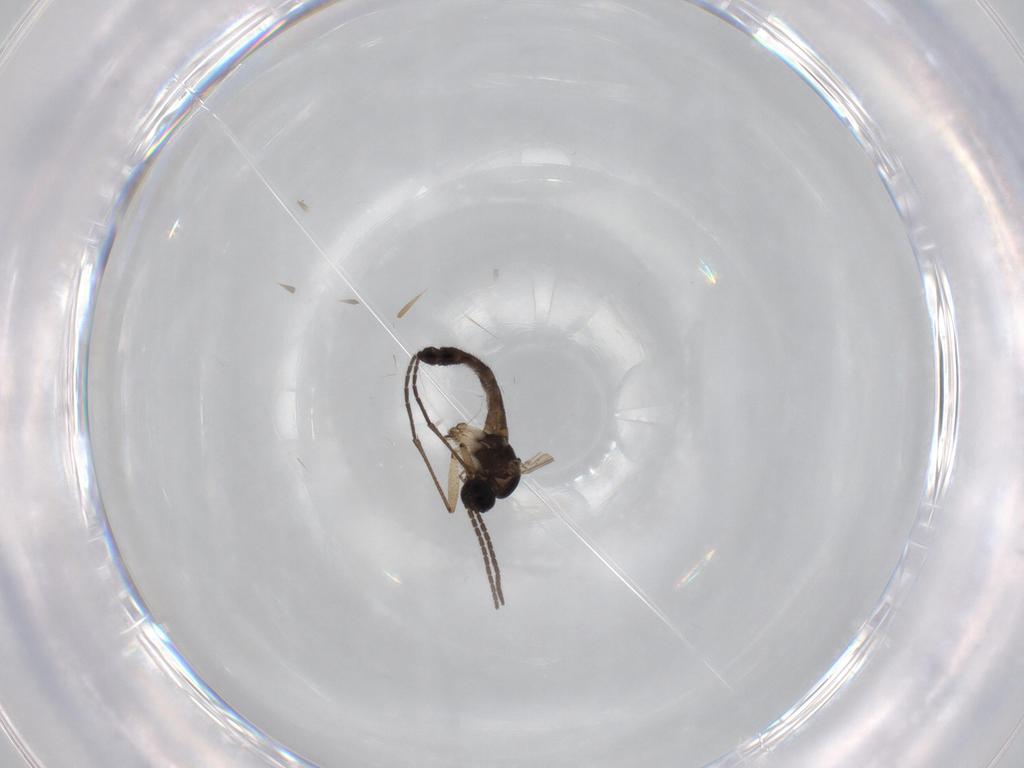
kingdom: Animalia
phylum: Arthropoda
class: Insecta
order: Diptera
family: Sciaridae
